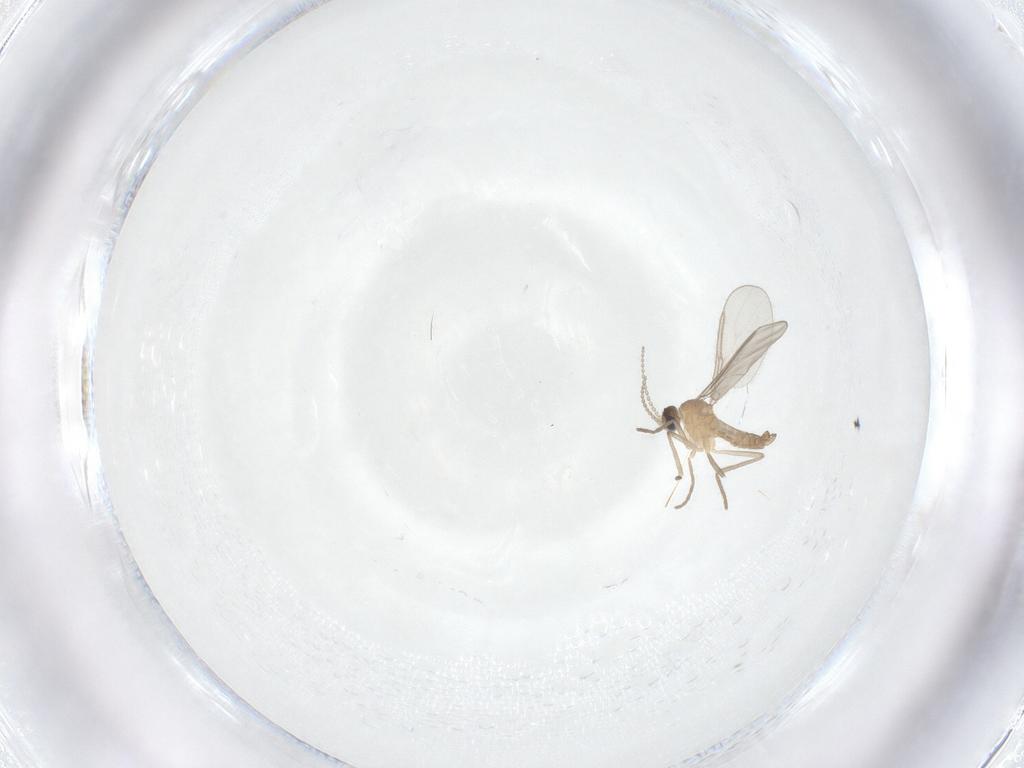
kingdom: Animalia
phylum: Arthropoda
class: Insecta
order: Diptera
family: Cecidomyiidae
